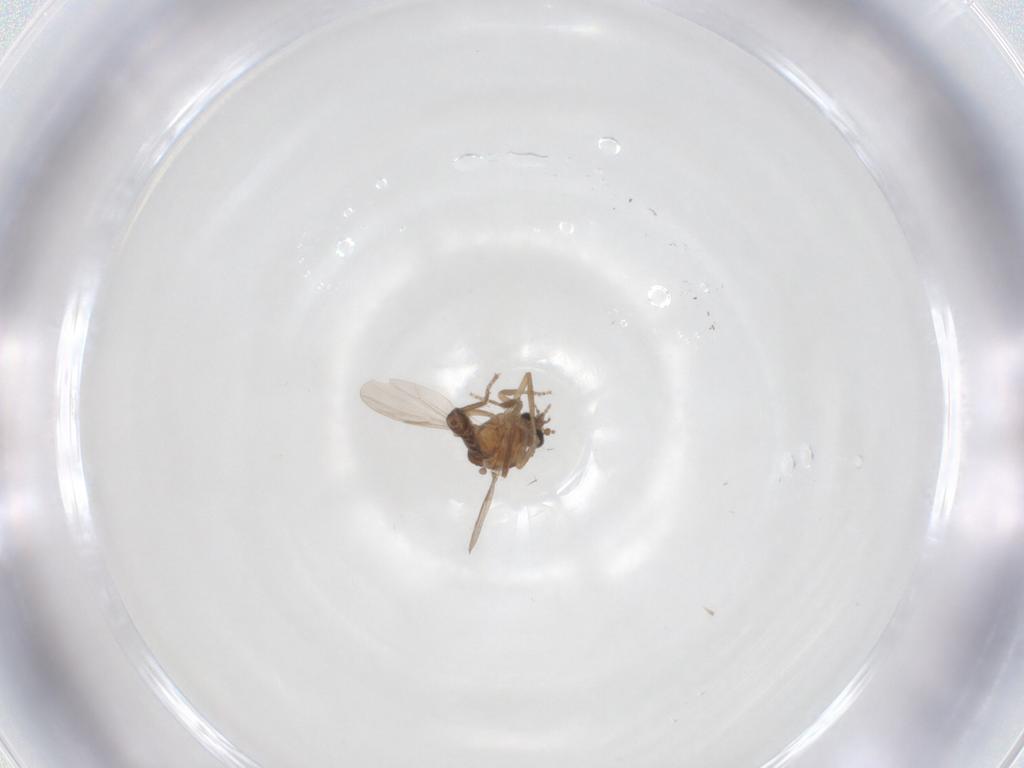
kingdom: Animalia
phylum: Arthropoda
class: Insecta
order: Diptera
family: Ceratopogonidae
